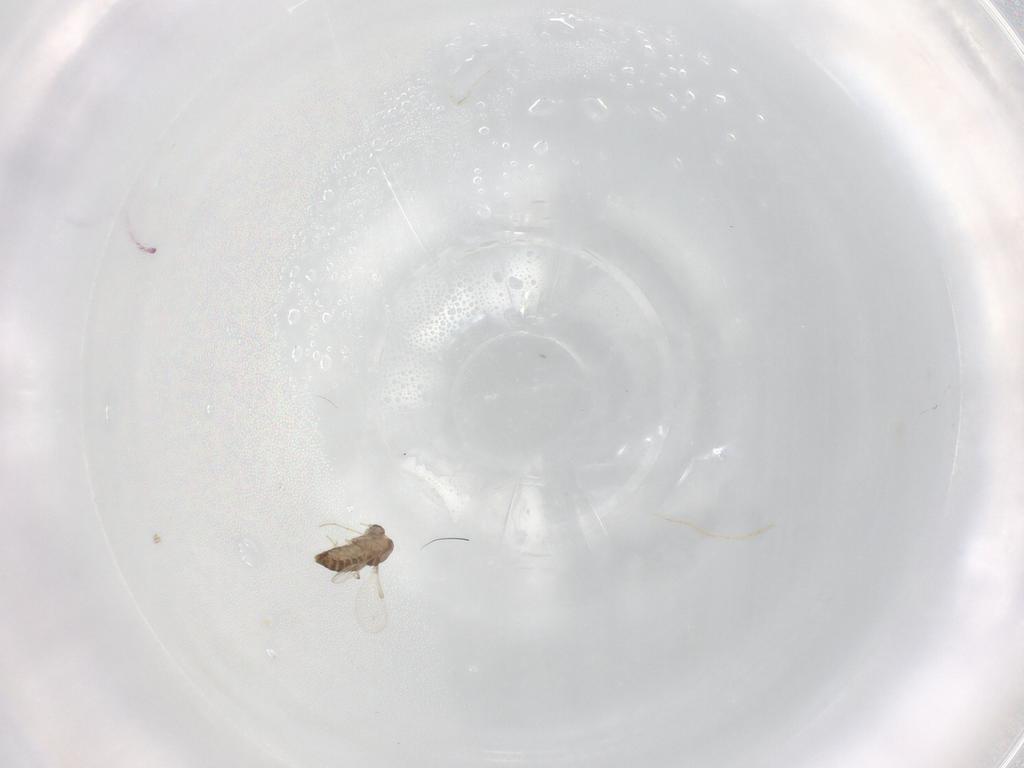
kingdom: Animalia
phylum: Arthropoda
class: Insecta
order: Diptera
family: Chironomidae
